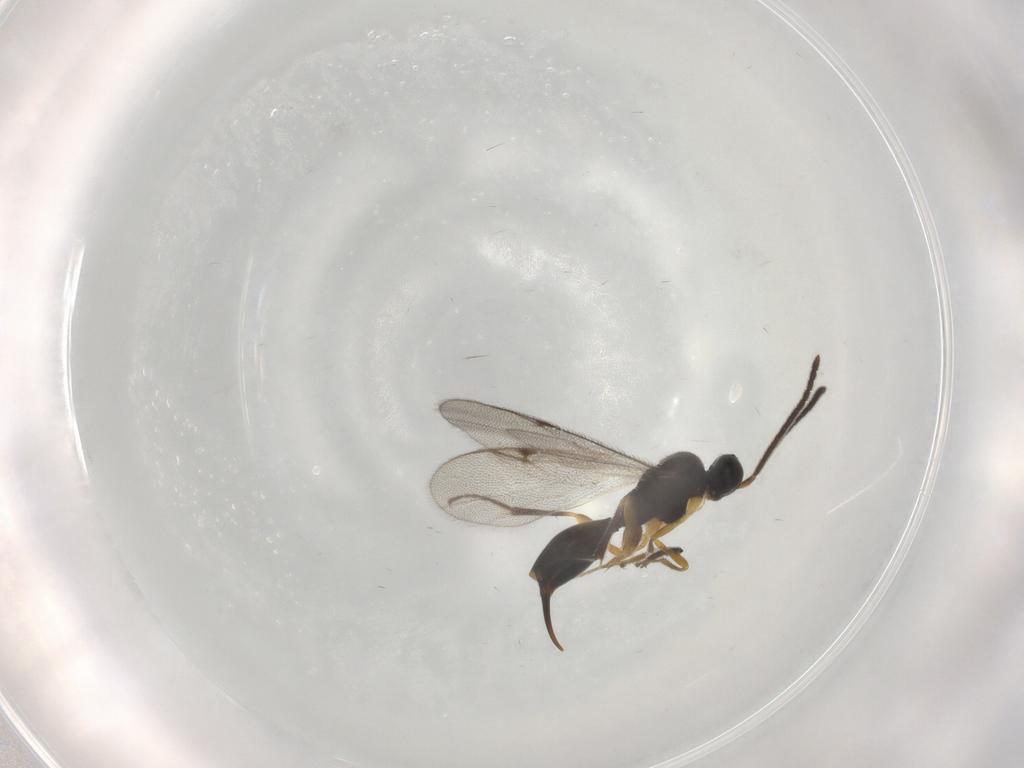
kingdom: Animalia
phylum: Arthropoda
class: Insecta
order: Hymenoptera
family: Proctotrupidae
